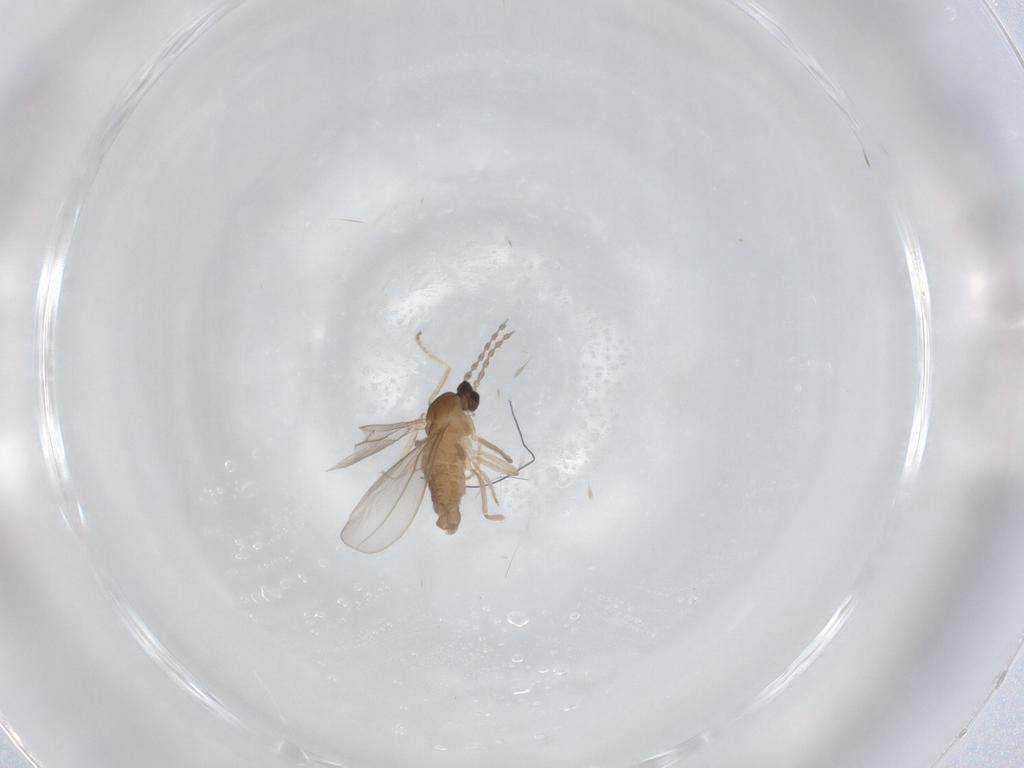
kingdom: Animalia
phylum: Arthropoda
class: Insecta
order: Diptera
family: Cecidomyiidae
